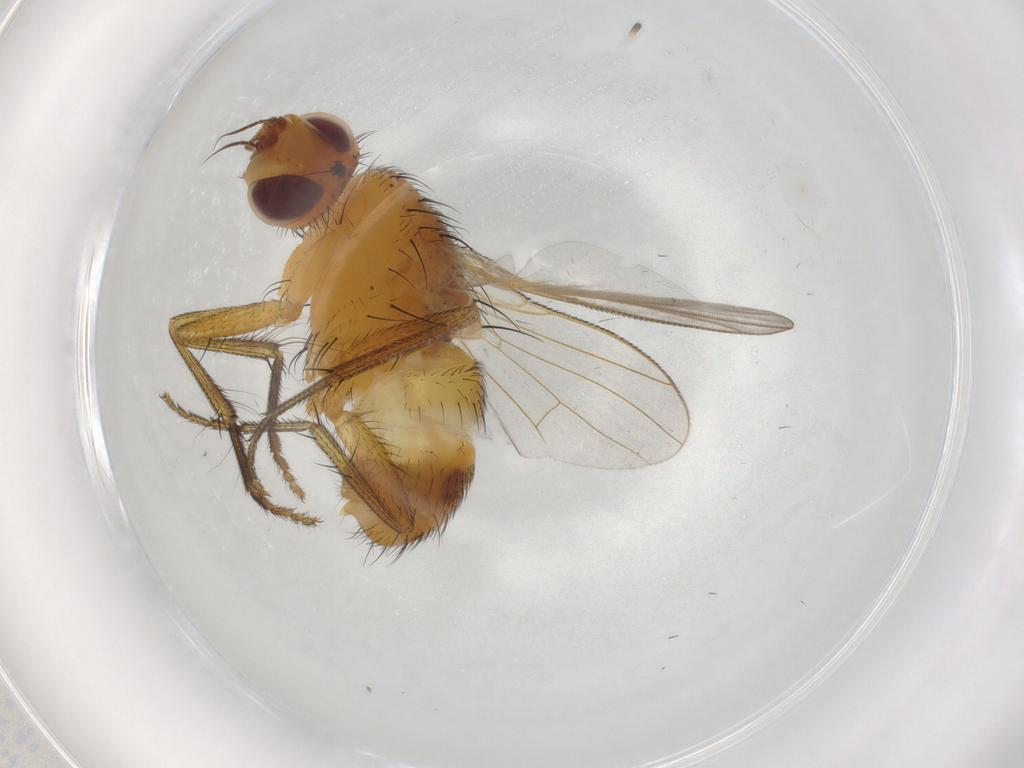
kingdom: Animalia
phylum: Arthropoda
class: Insecta
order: Diptera
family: Muscidae
